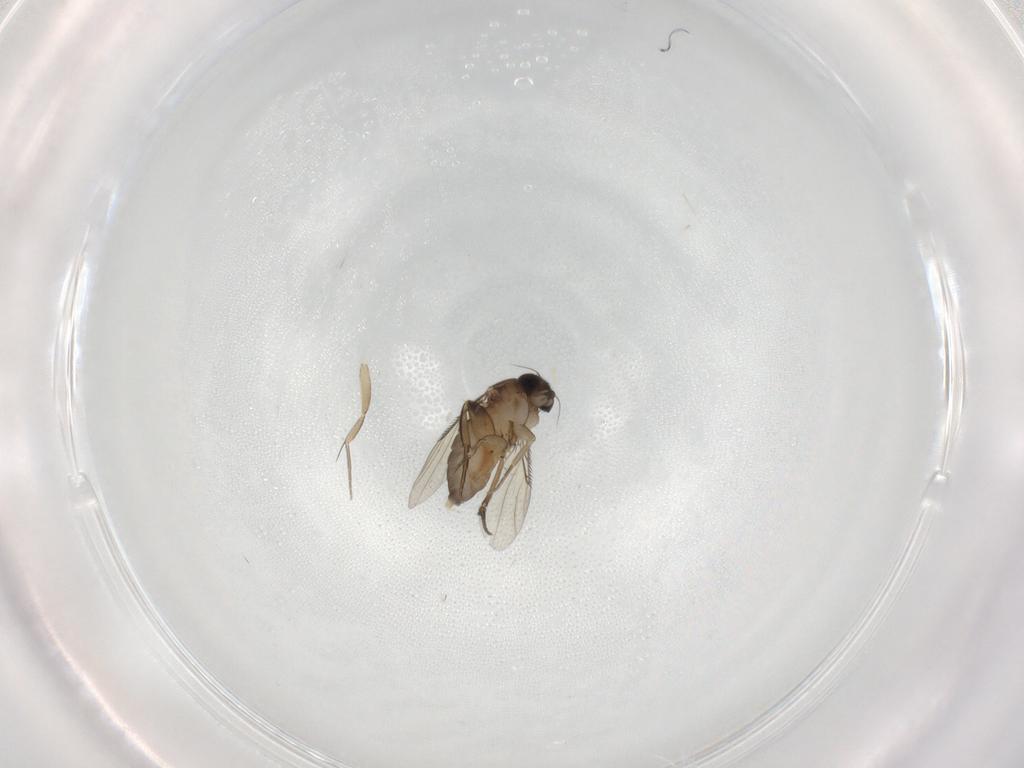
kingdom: Animalia
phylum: Arthropoda
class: Insecta
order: Diptera
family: Phoridae
